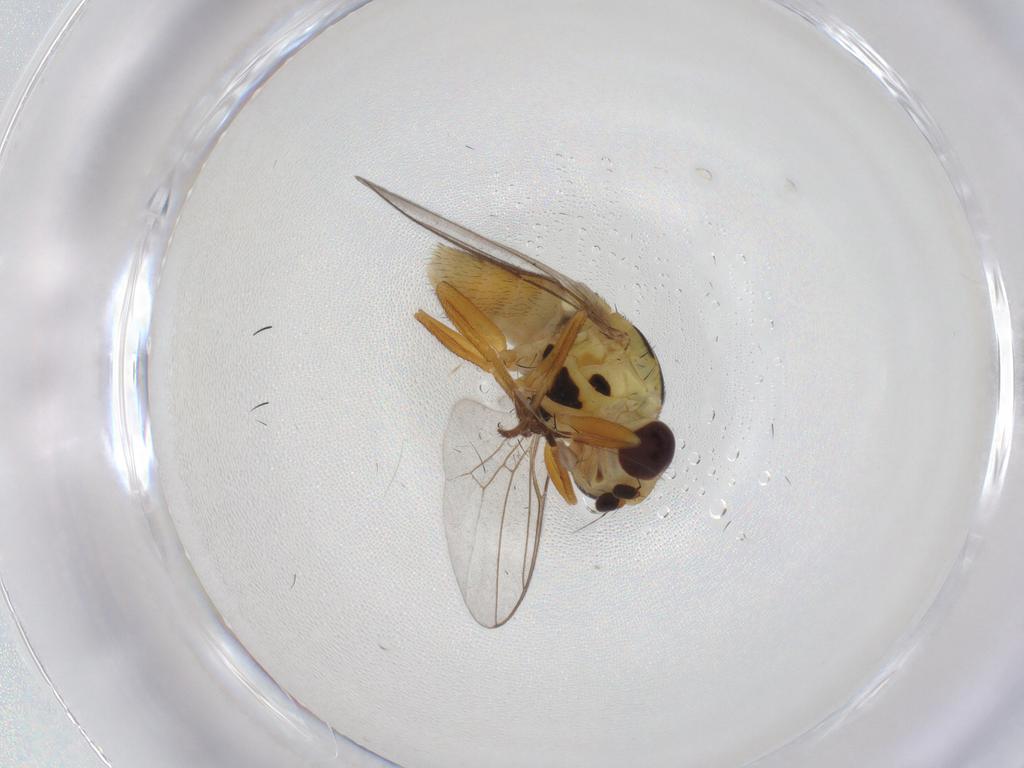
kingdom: Animalia
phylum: Arthropoda
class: Insecta
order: Diptera
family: Chloropidae
